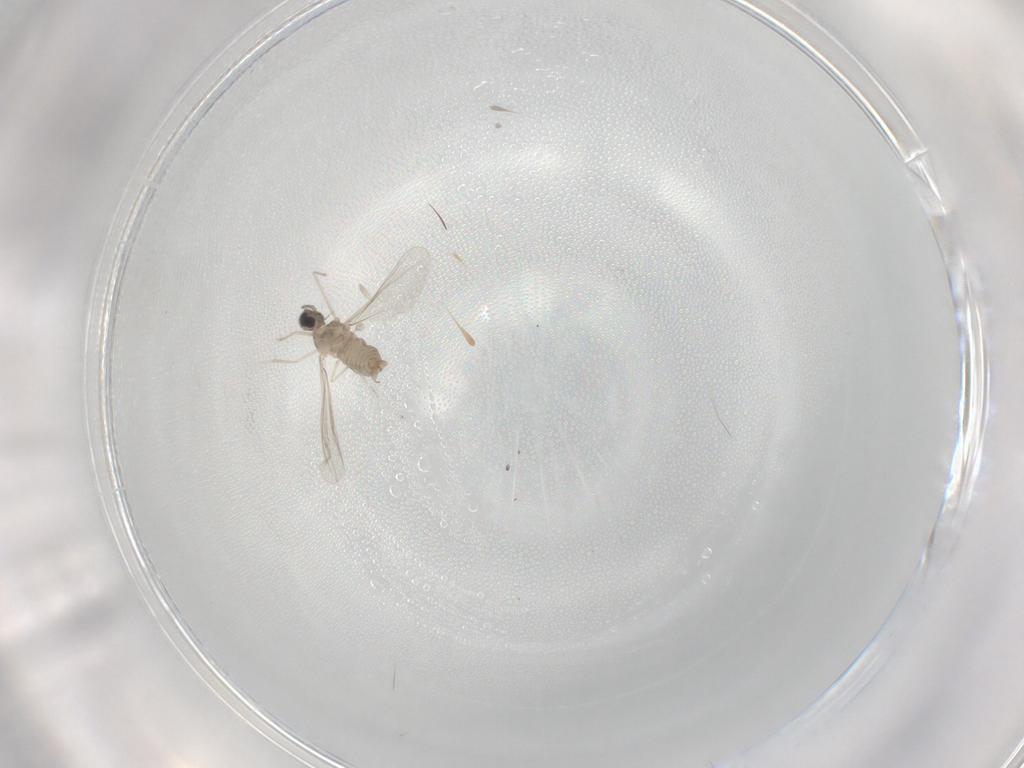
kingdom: Animalia
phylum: Arthropoda
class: Insecta
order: Diptera
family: Cecidomyiidae
